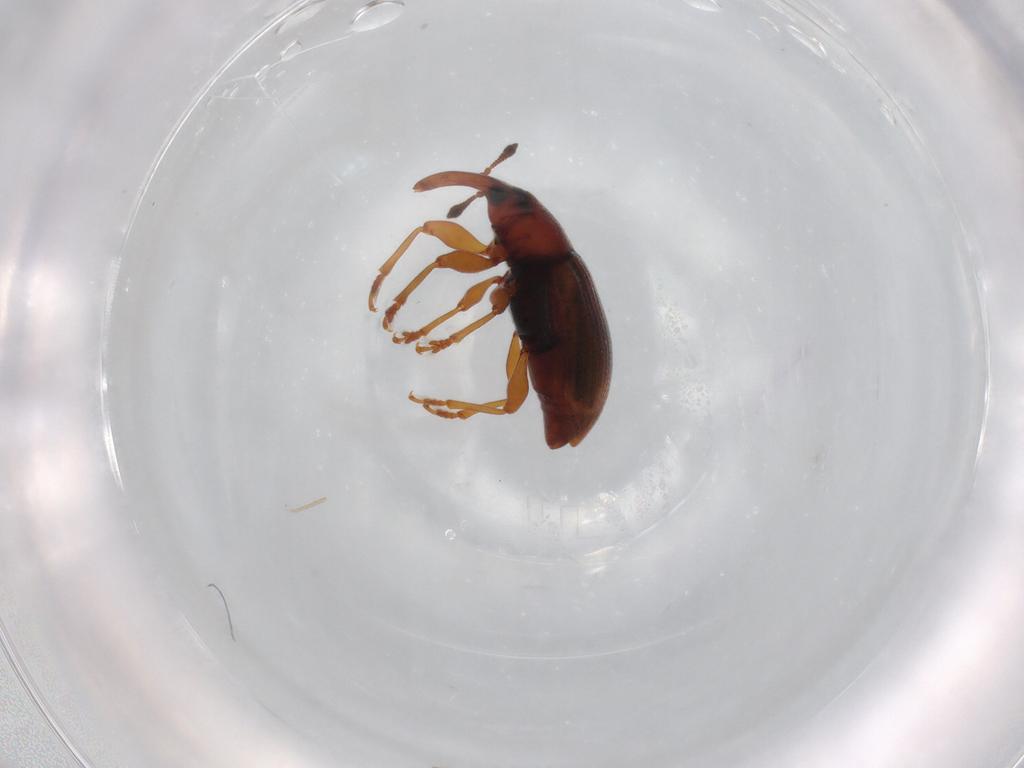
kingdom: Animalia
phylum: Arthropoda
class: Insecta
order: Coleoptera
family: Curculionidae
